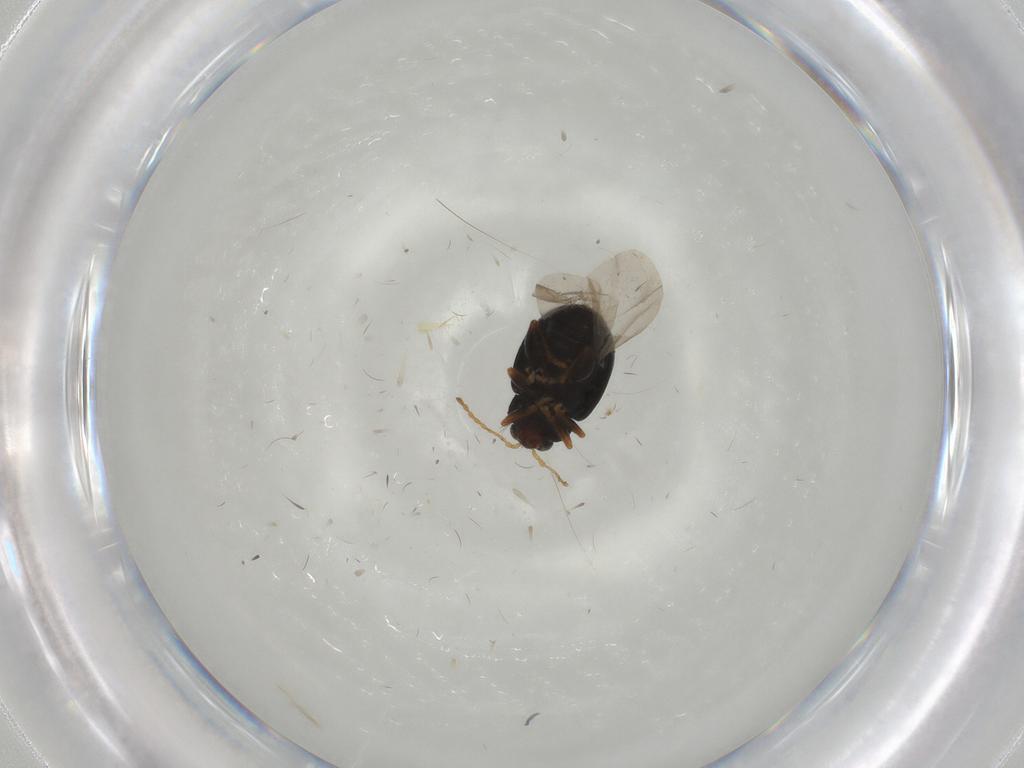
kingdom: Animalia
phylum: Arthropoda
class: Insecta
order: Coleoptera
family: Chrysomelidae
